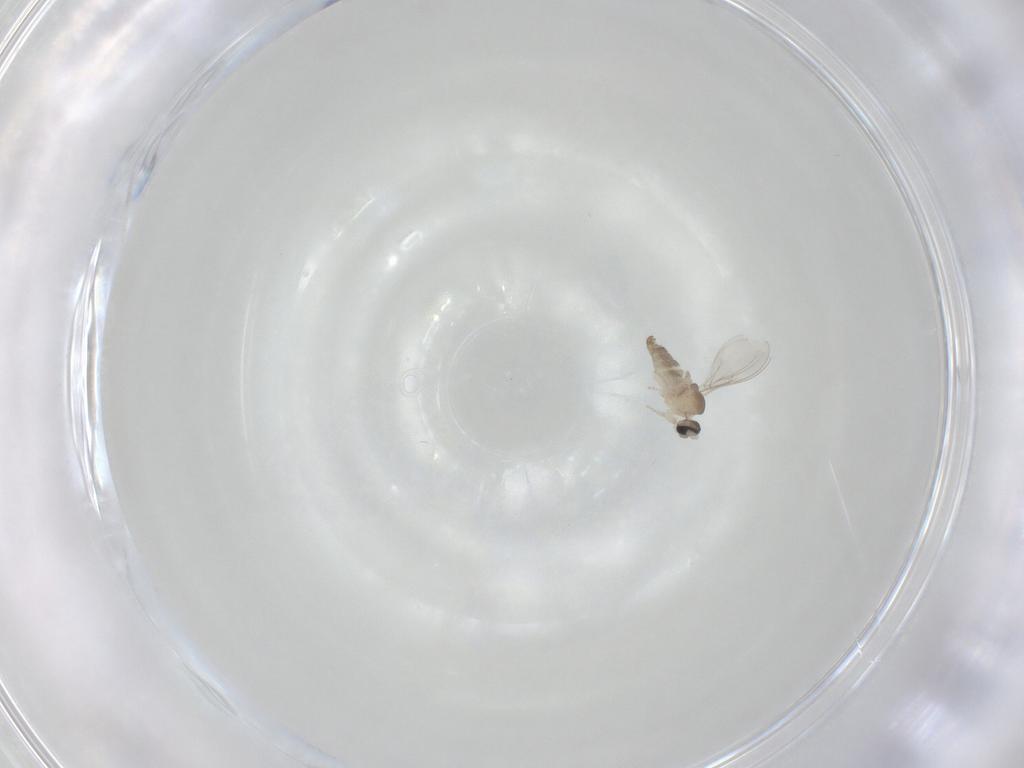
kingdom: Animalia
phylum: Arthropoda
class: Insecta
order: Diptera
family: Cecidomyiidae
